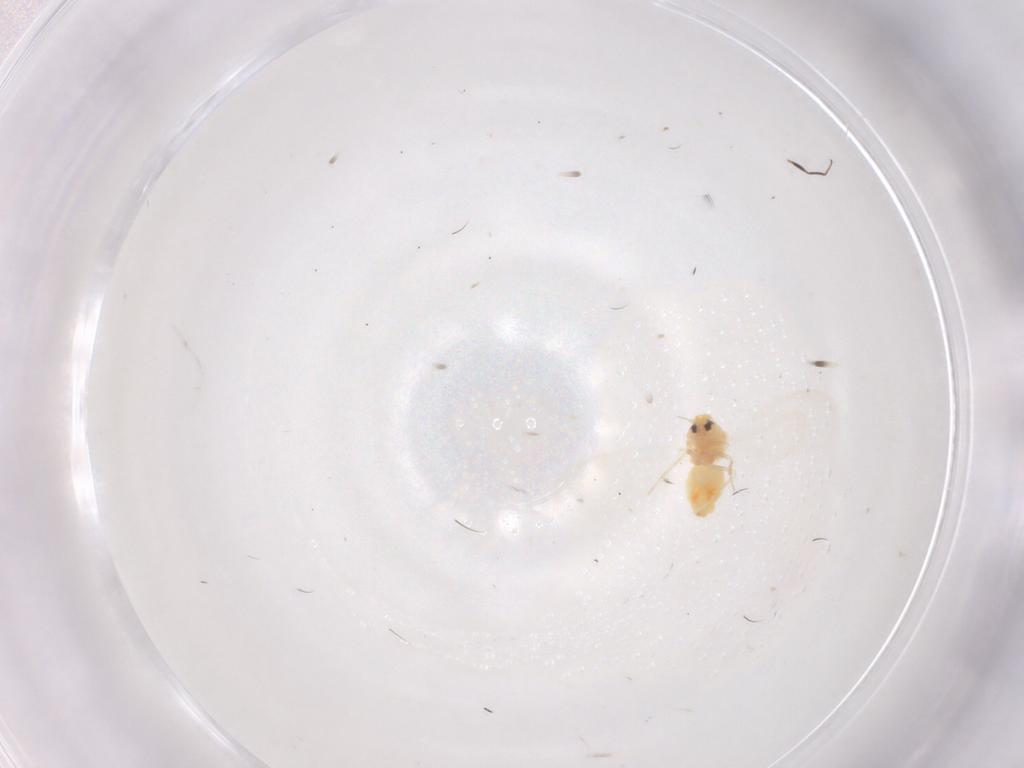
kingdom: Animalia
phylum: Arthropoda
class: Insecta
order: Hemiptera
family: Aleyrodidae
